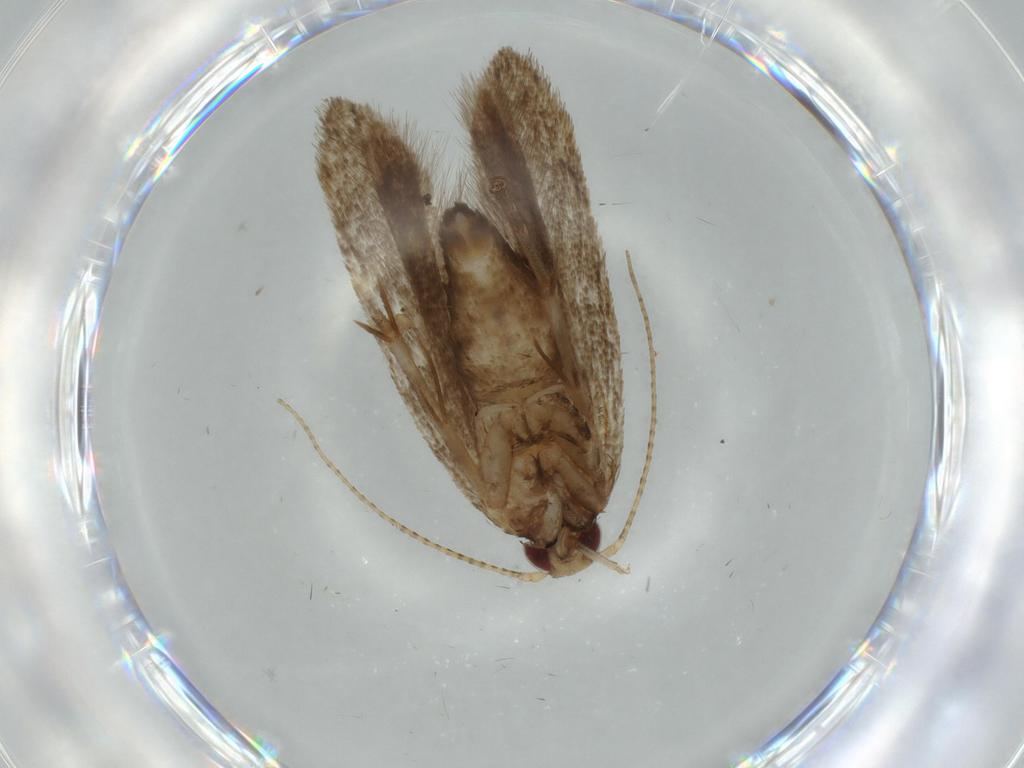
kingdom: Animalia
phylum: Arthropoda
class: Insecta
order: Lepidoptera
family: Cosmopterigidae
